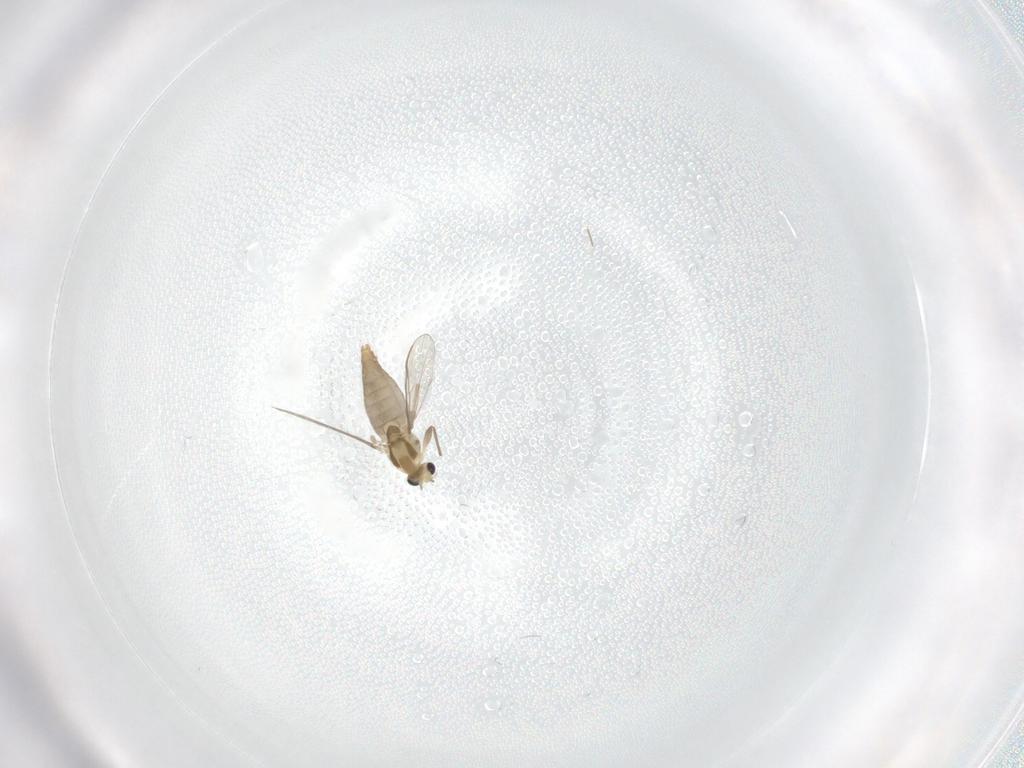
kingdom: Animalia
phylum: Arthropoda
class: Insecta
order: Diptera
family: Chironomidae
